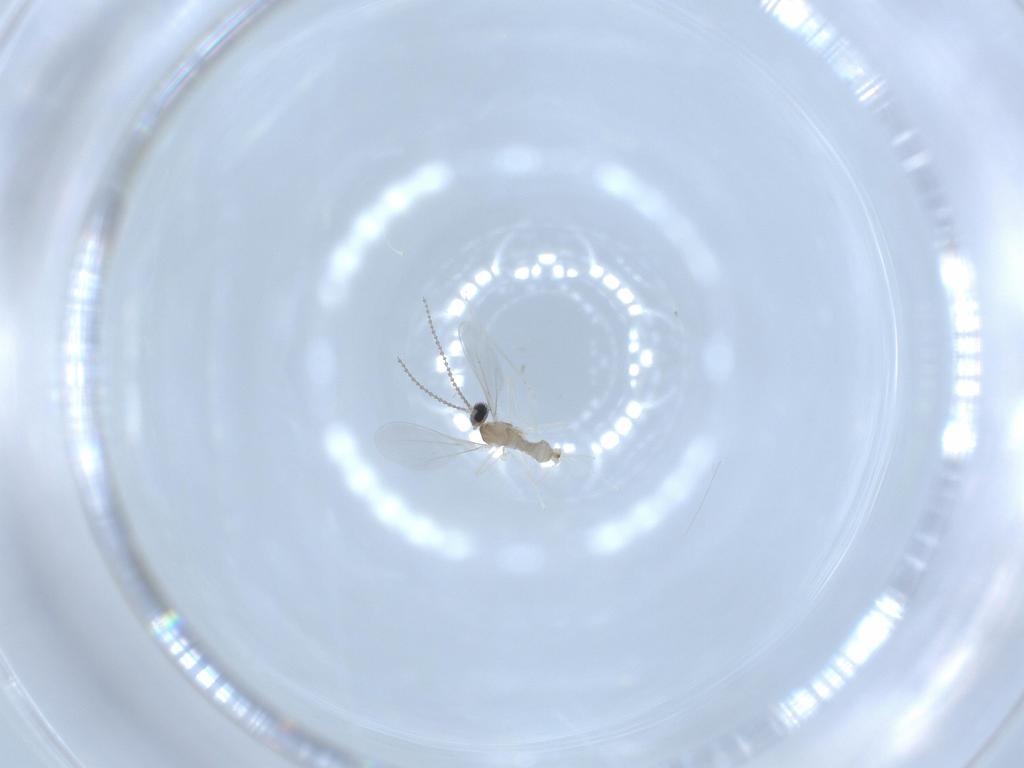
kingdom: Animalia
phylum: Arthropoda
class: Insecta
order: Diptera
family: Cecidomyiidae
